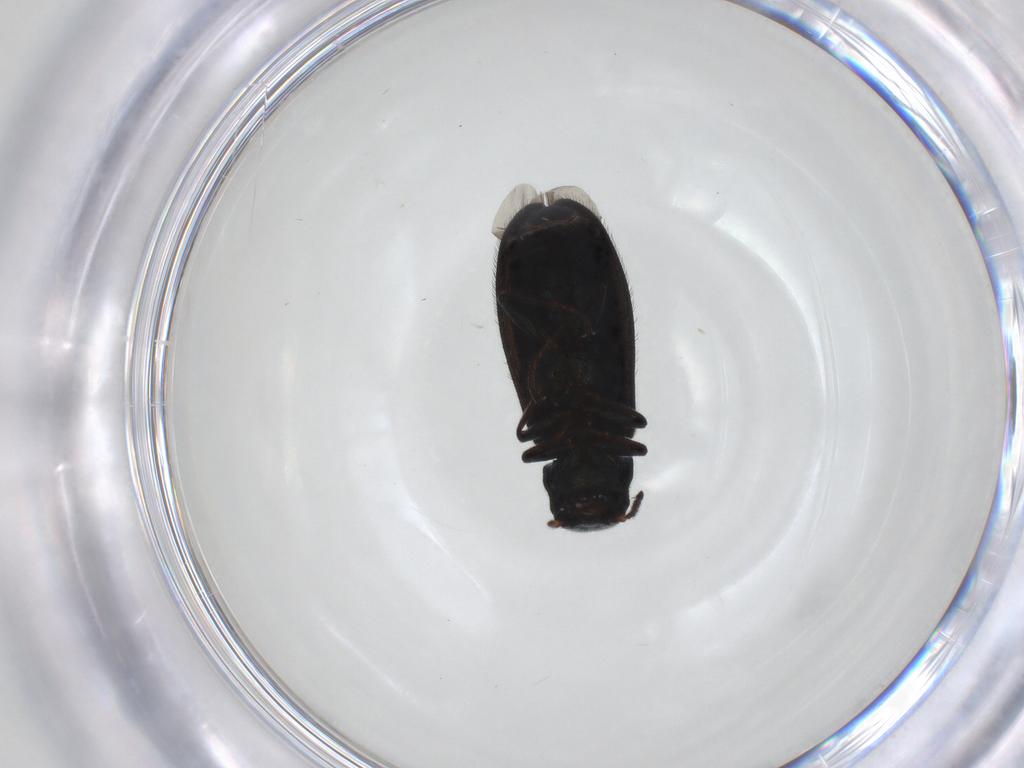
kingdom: Animalia
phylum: Arthropoda
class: Insecta
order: Coleoptera
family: Melyridae
